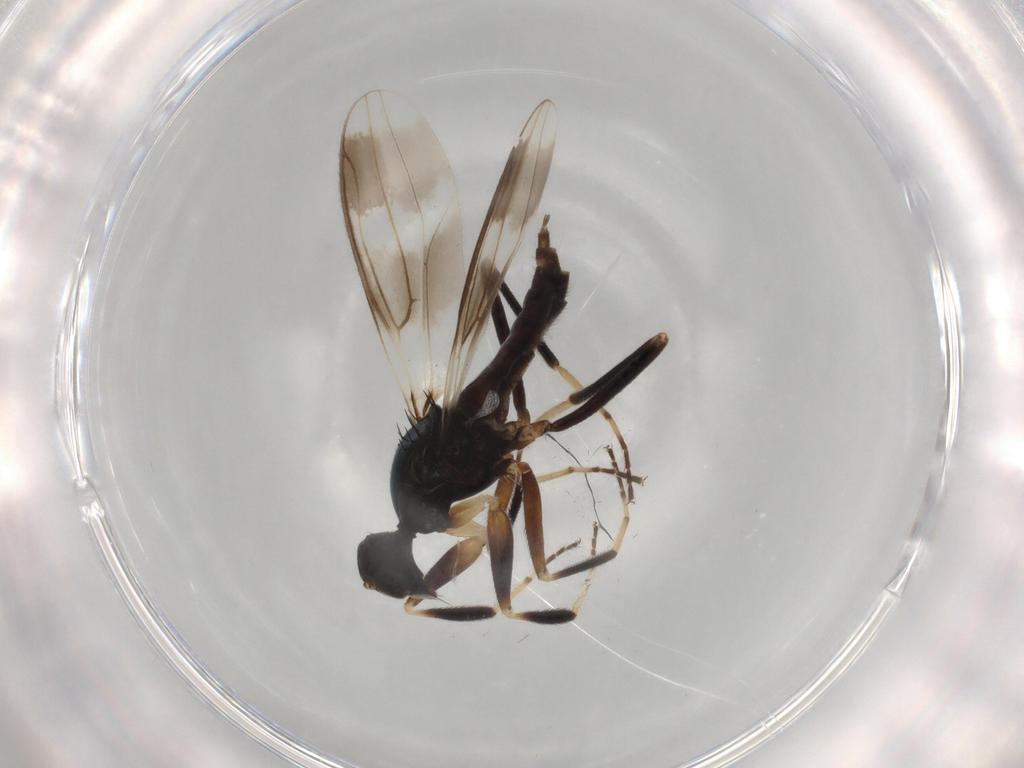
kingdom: Animalia
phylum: Arthropoda
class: Insecta
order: Diptera
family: Hybotidae
